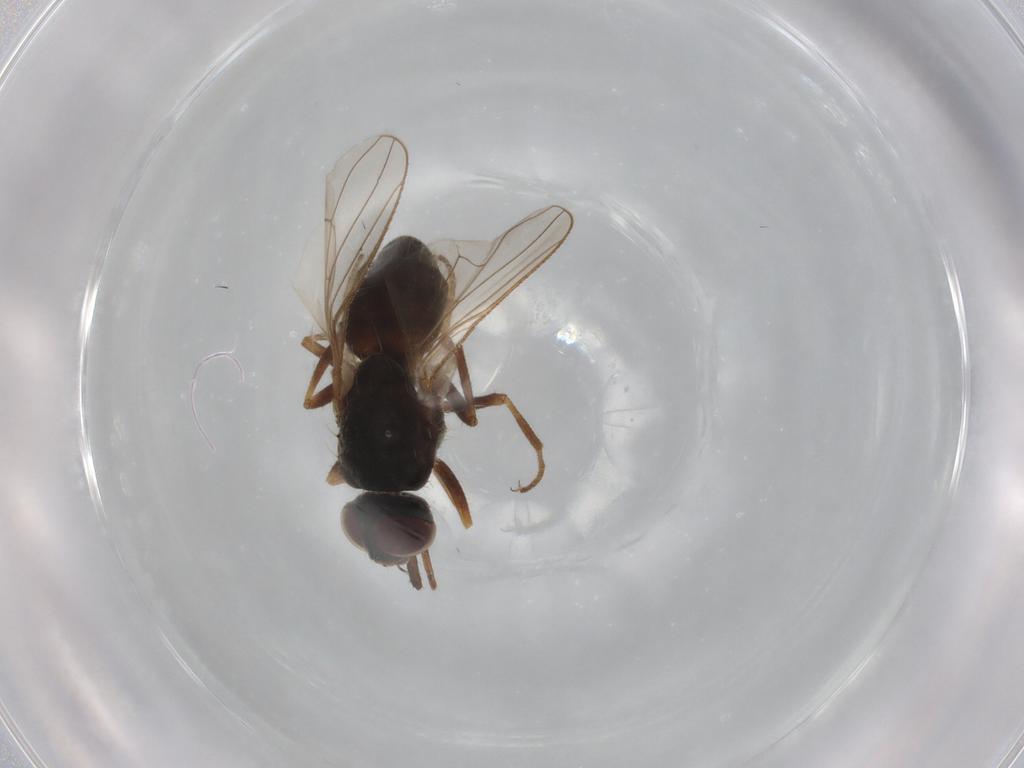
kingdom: Animalia
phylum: Arthropoda
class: Insecta
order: Diptera
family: Muscidae
